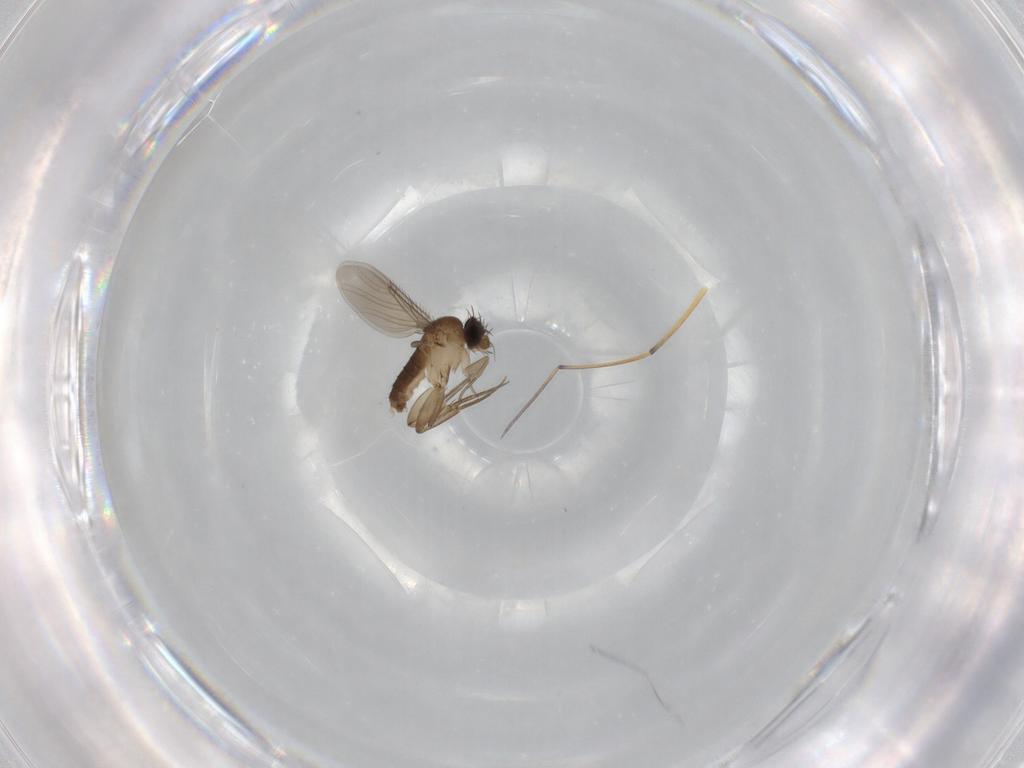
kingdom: Animalia
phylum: Arthropoda
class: Insecta
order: Diptera
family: Phoridae
